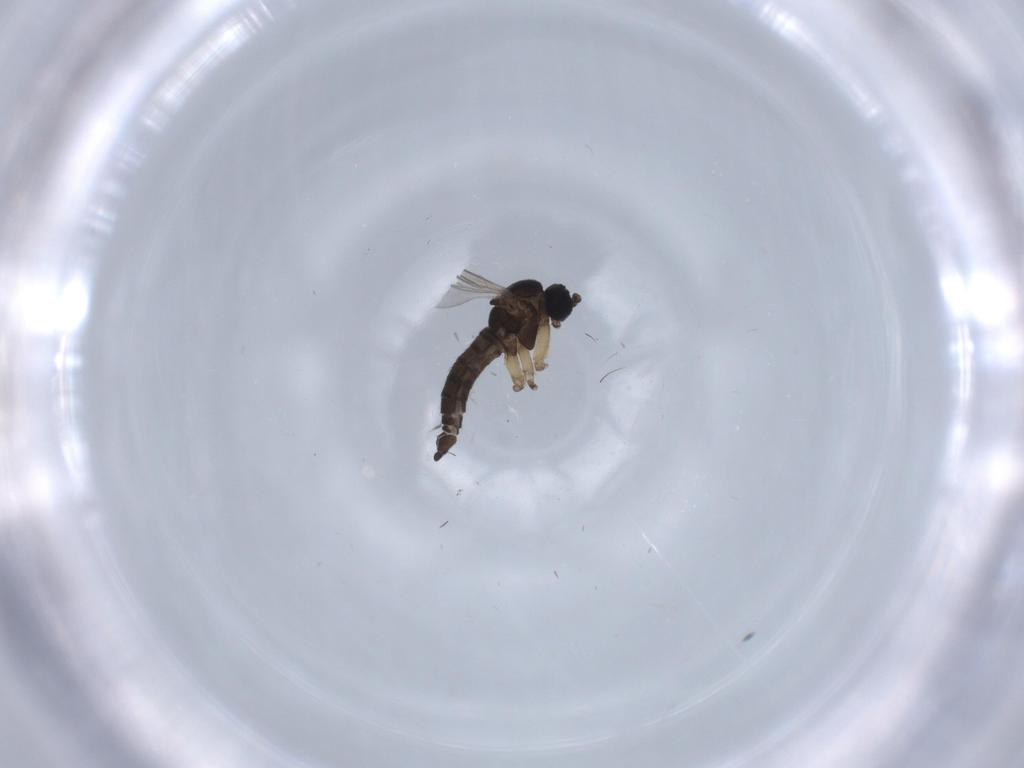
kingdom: Animalia
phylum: Arthropoda
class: Insecta
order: Diptera
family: Sciaridae
